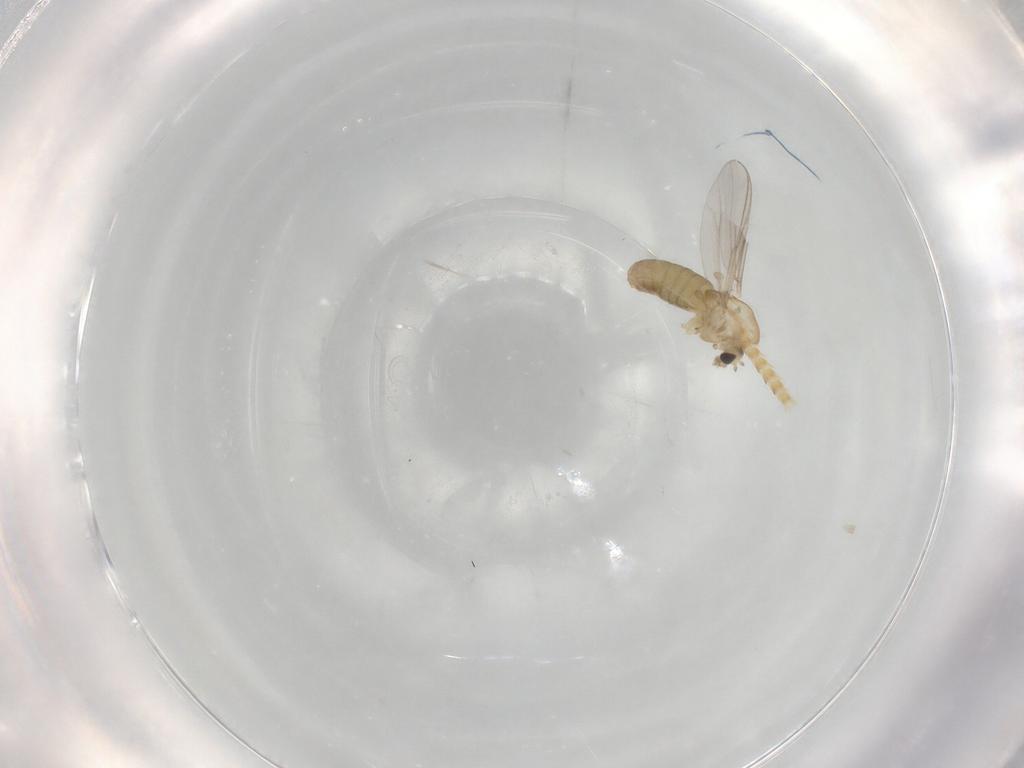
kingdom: Animalia
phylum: Arthropoda
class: Insecta
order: Diptera
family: Chironomidae
